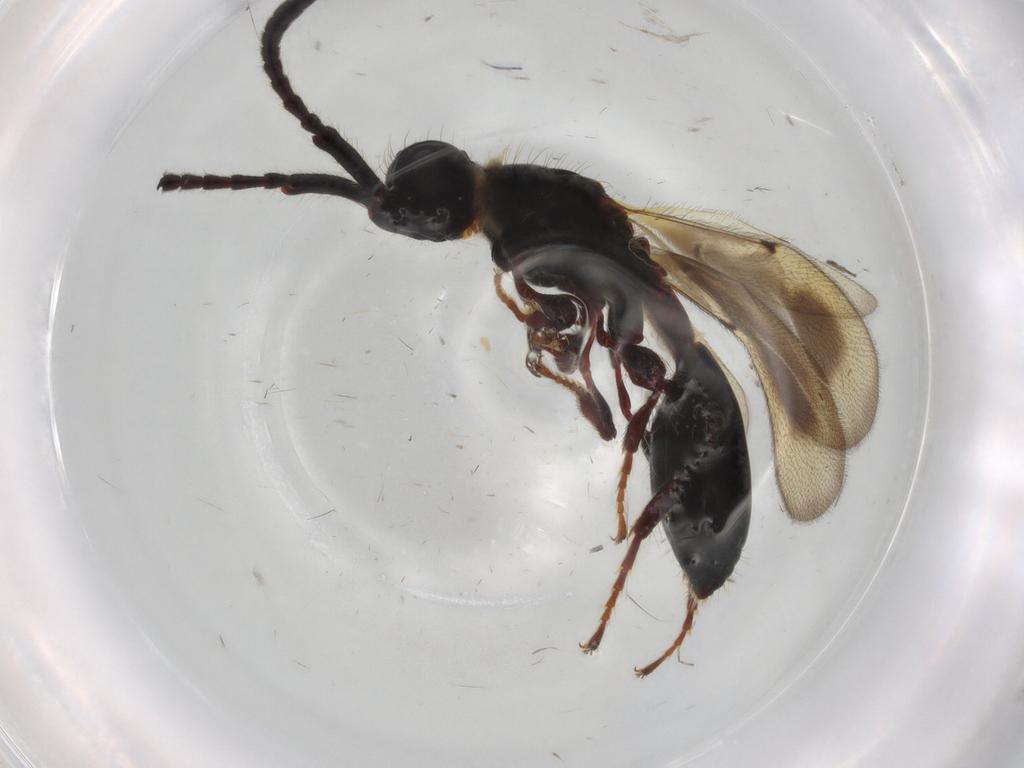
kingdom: Animalia
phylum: Arthropoda
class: Insecta
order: Hymenoptera
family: Diapriidae
